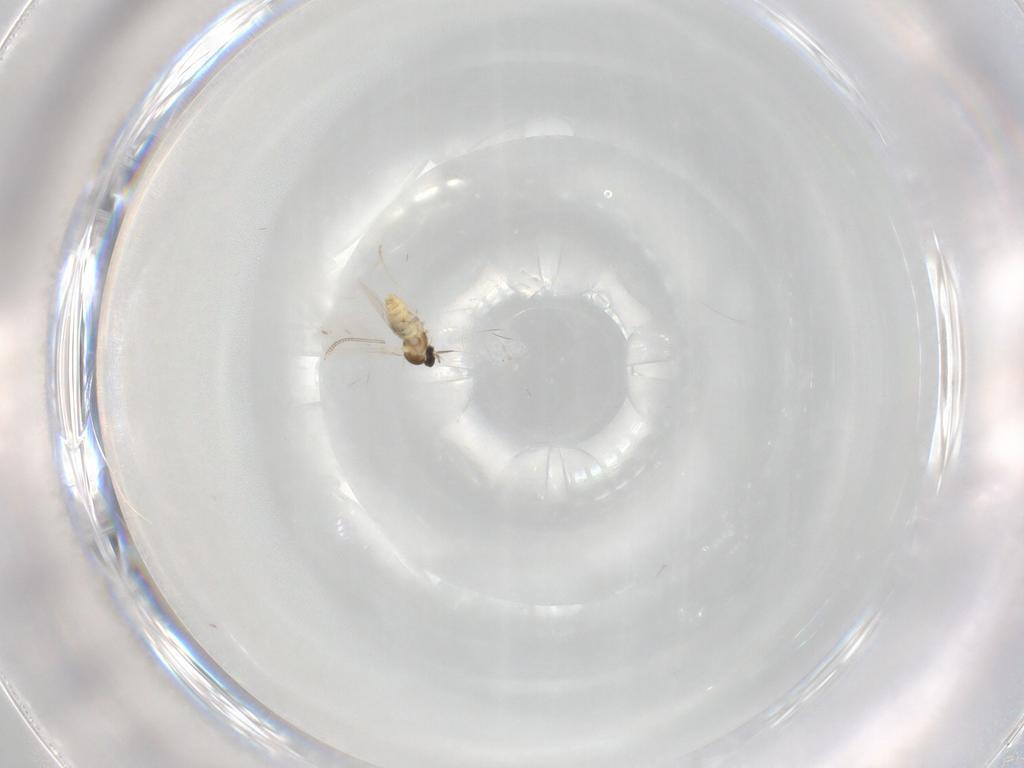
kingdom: Animalia
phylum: Arthropoda
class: Insecta
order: Diptera
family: Cecidomyiidae
